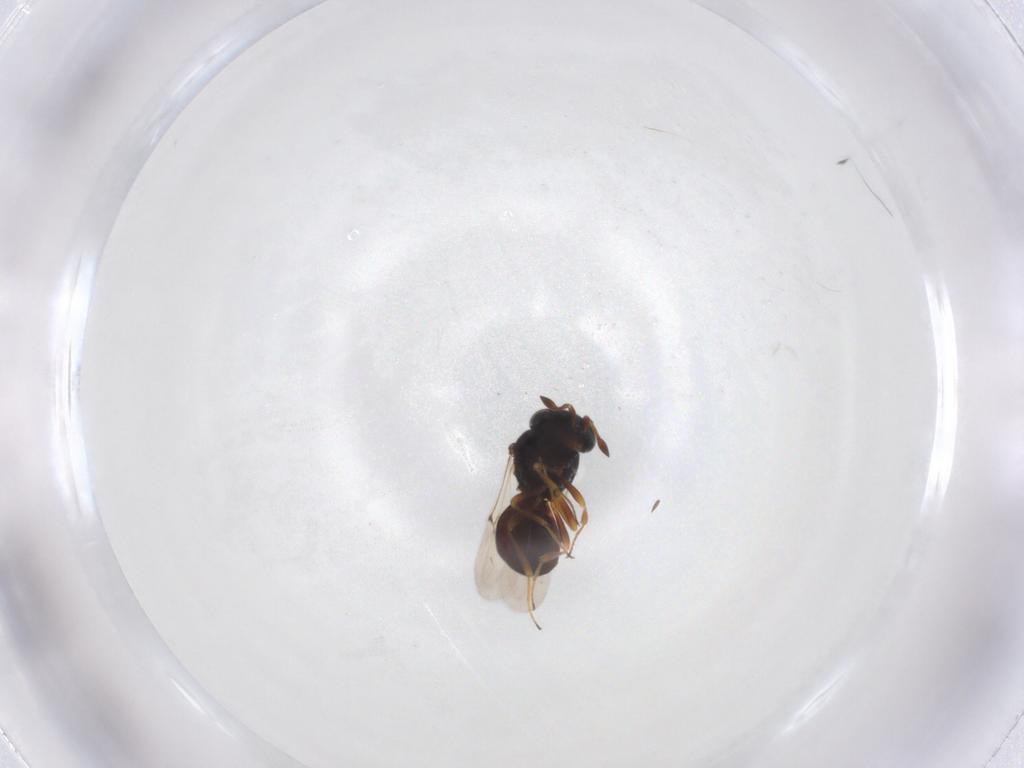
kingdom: Animalia
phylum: Arthropoda
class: Insecta
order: Hymenoptera
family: Scelionidae
